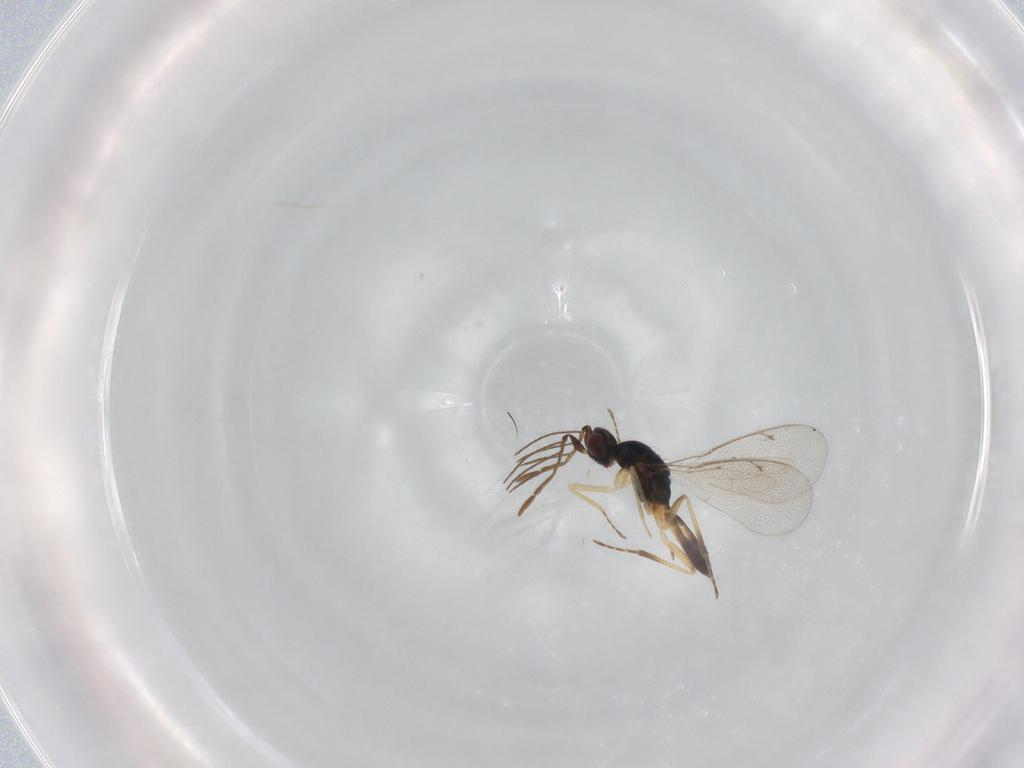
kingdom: Animalia
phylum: Arthropoda
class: Insecta
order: Hymenoptera
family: Eulophidae
